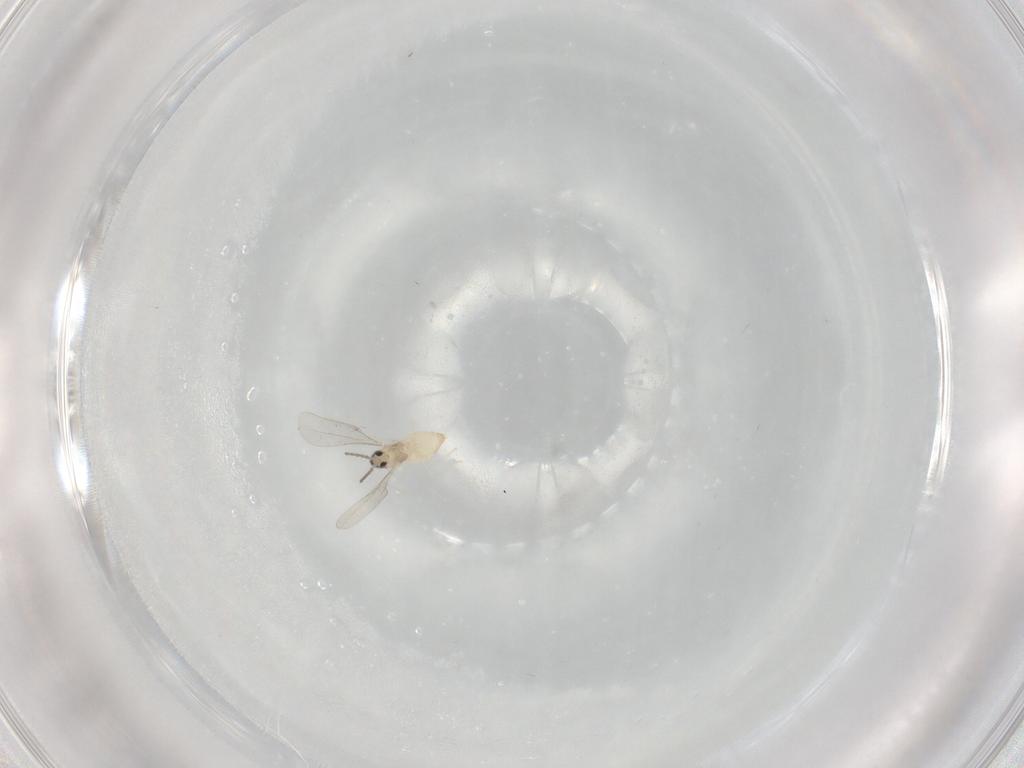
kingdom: Animalia
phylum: Arthropoda
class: Insecta
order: Diptera
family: Cecidomyiidae
